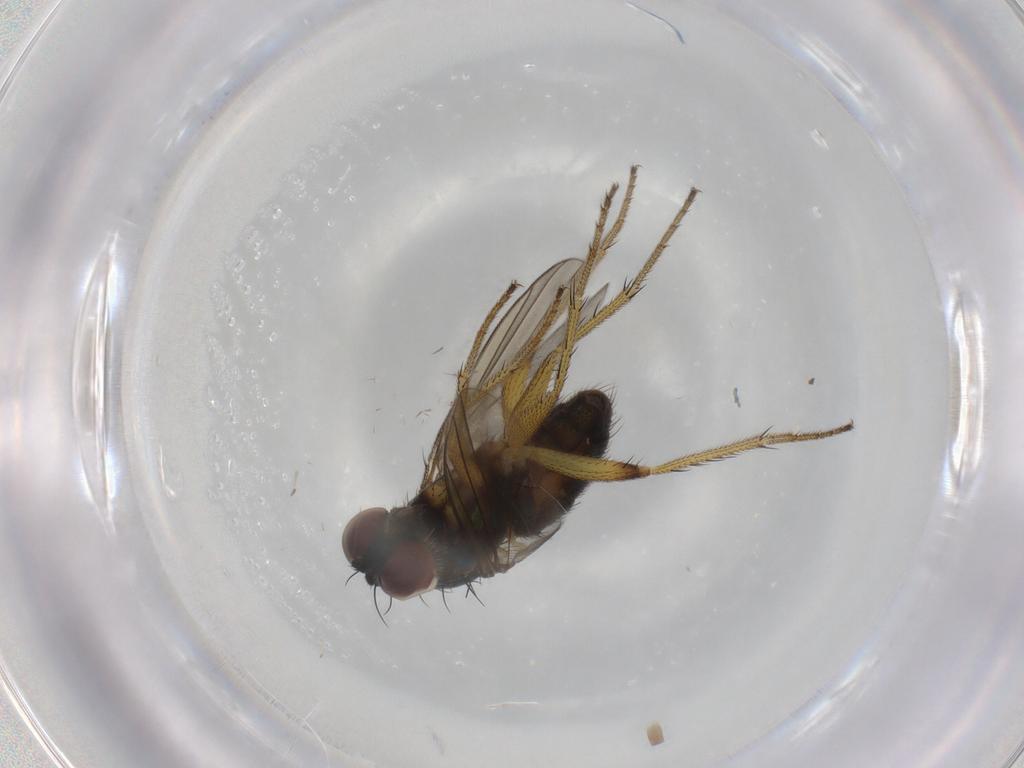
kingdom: Animalia
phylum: Arthropoda
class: Insecta
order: Diptera
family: Dolichopodidae
